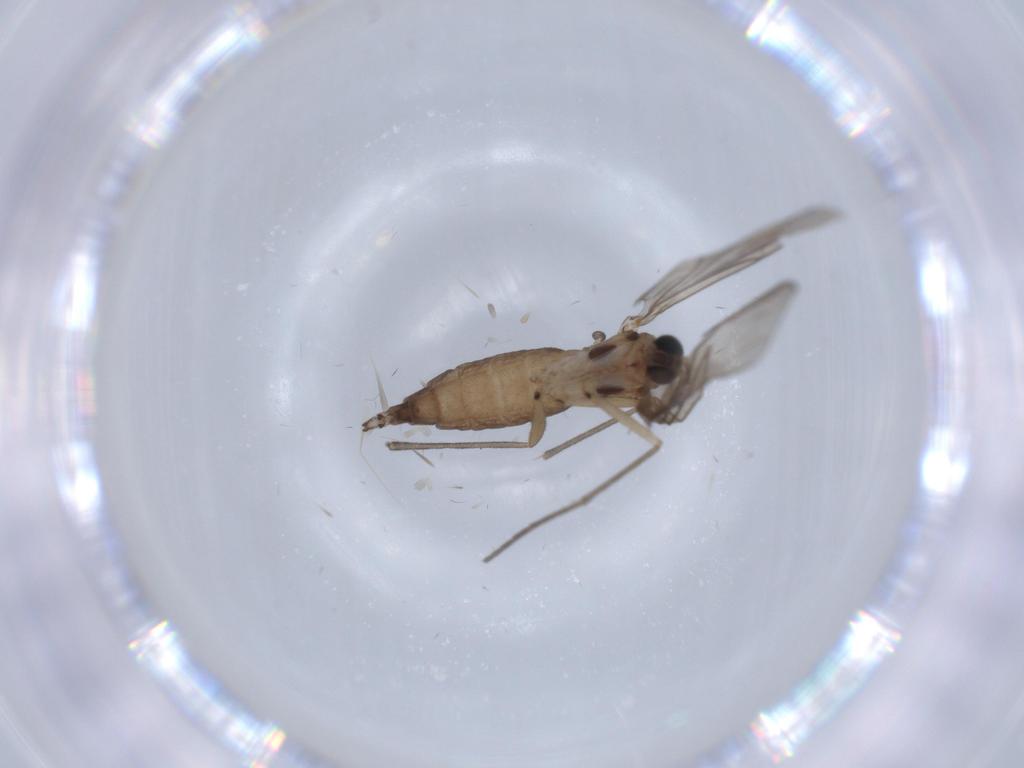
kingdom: Animalia
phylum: Arthropoda
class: Insecta
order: Diptera
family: Sciaridae
